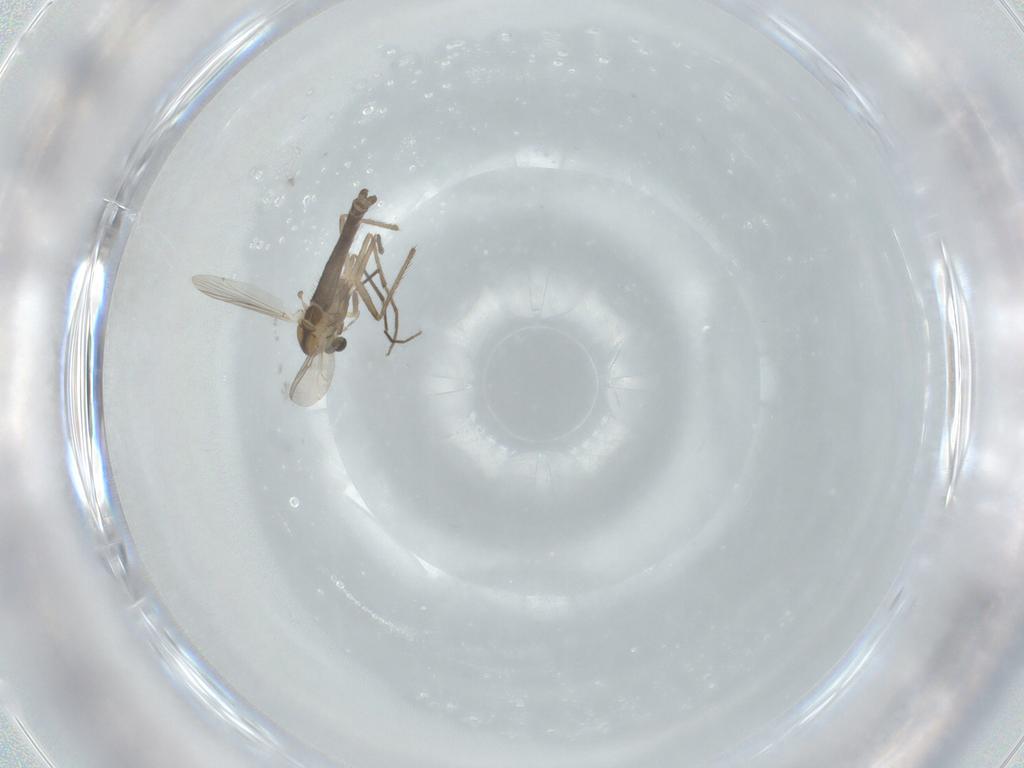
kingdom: Animalia
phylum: Arthropoda
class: Insecta
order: Diptera
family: Chironomidae
